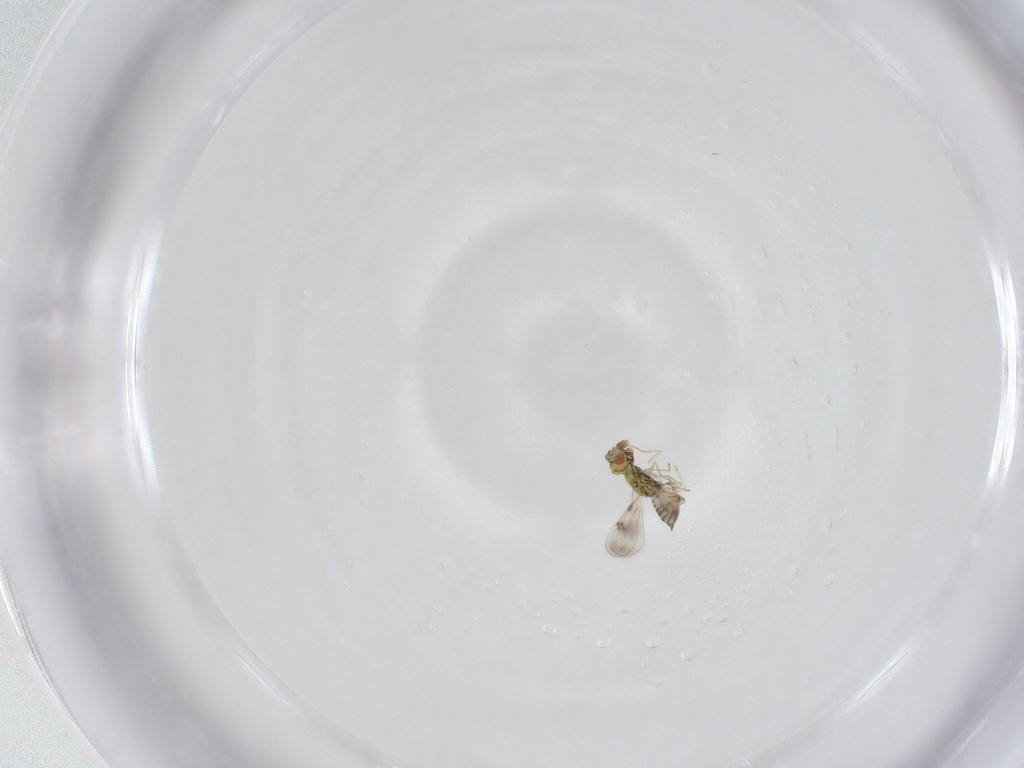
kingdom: Animalia
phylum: Arthropoda
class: Insecta
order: Hymenoptera
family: Eulophidae
